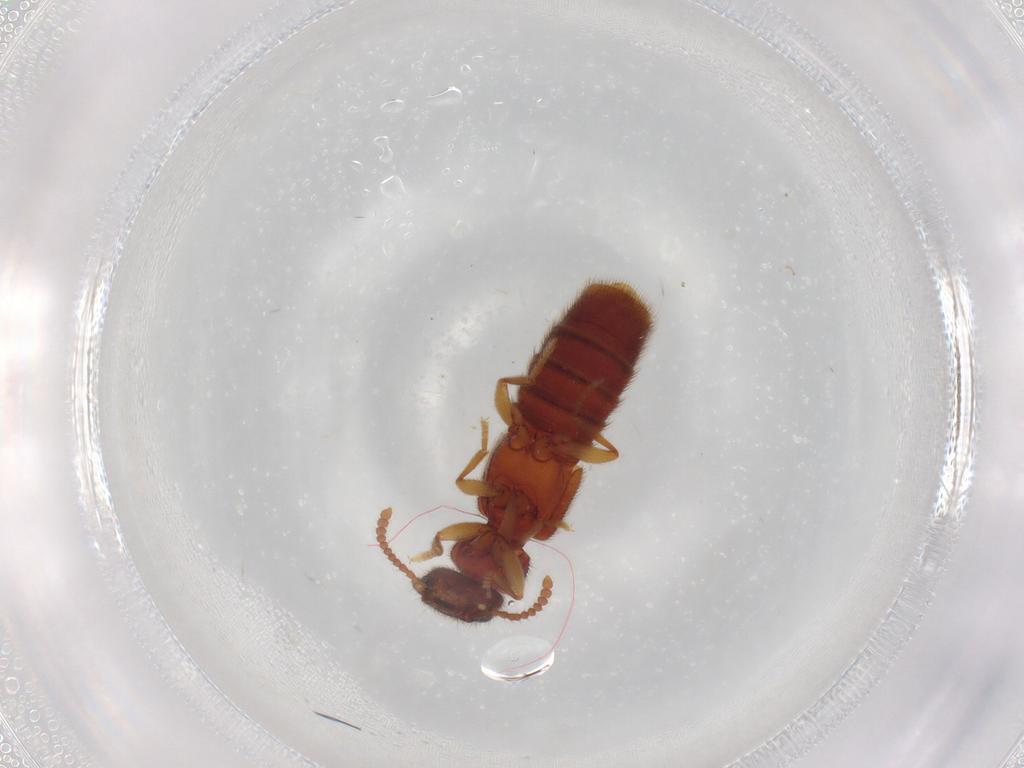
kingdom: Animalia
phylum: Arthropoda
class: Insecta
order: Coleoptera
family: Staphylinidae
